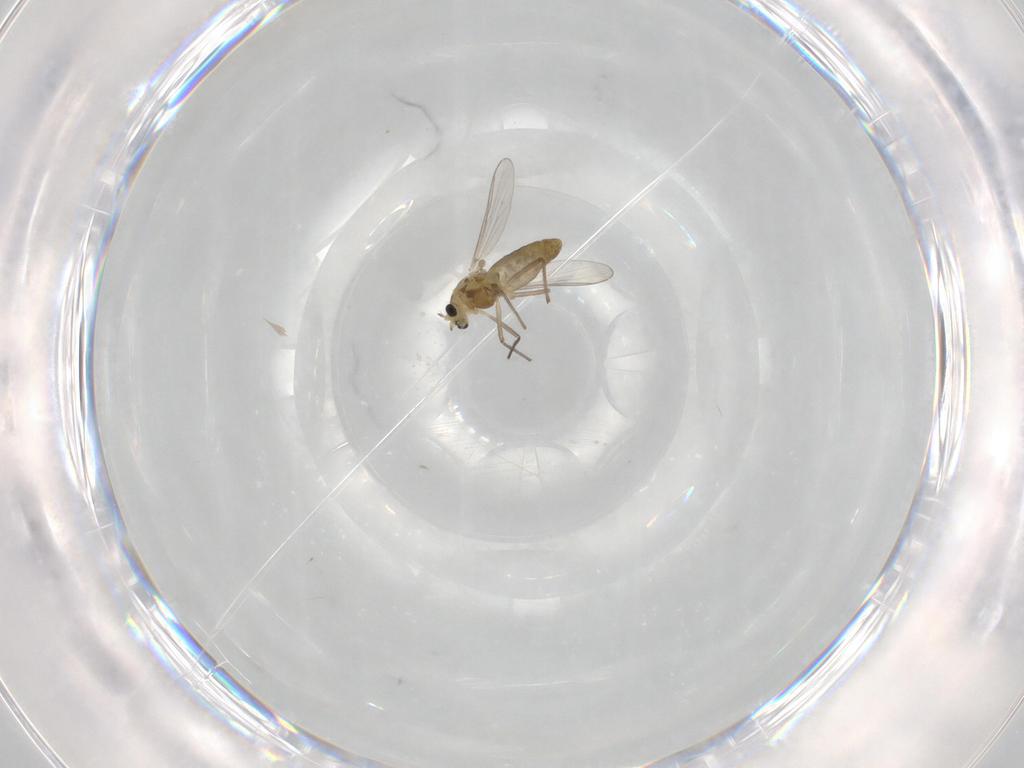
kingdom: Animalia
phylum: Arthropoda
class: Insecta
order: Diptera
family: Chironomidae
